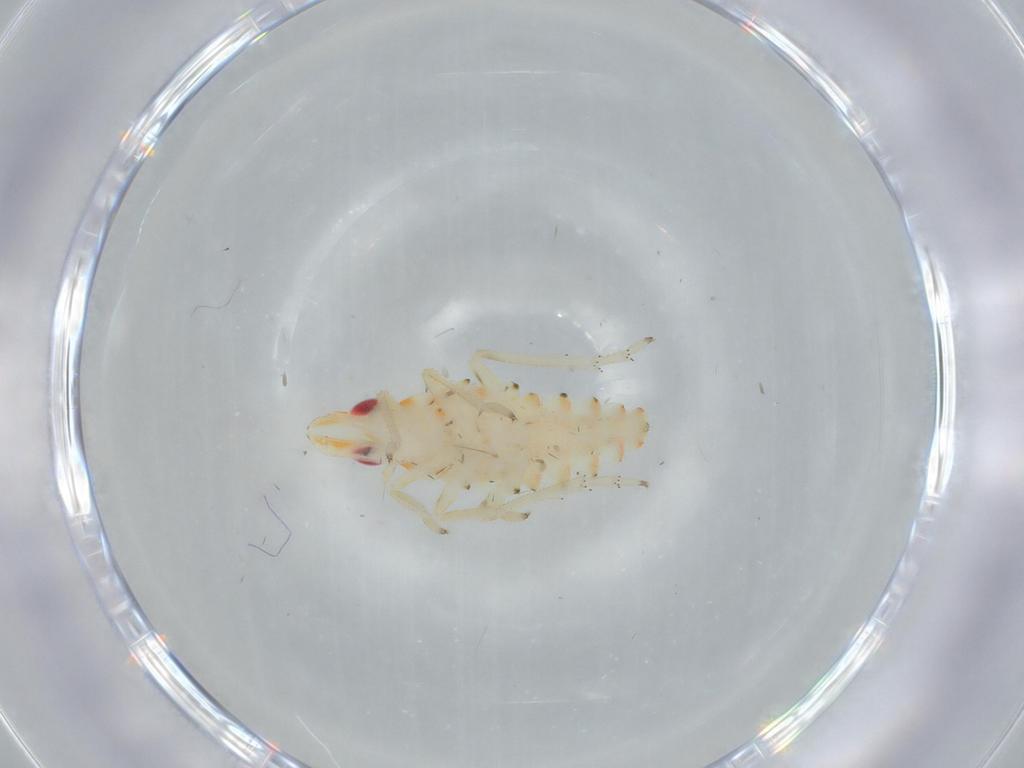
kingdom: Animalia
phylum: Arthropoda
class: Insecta
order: Hemiptera
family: Tropiduchidae
